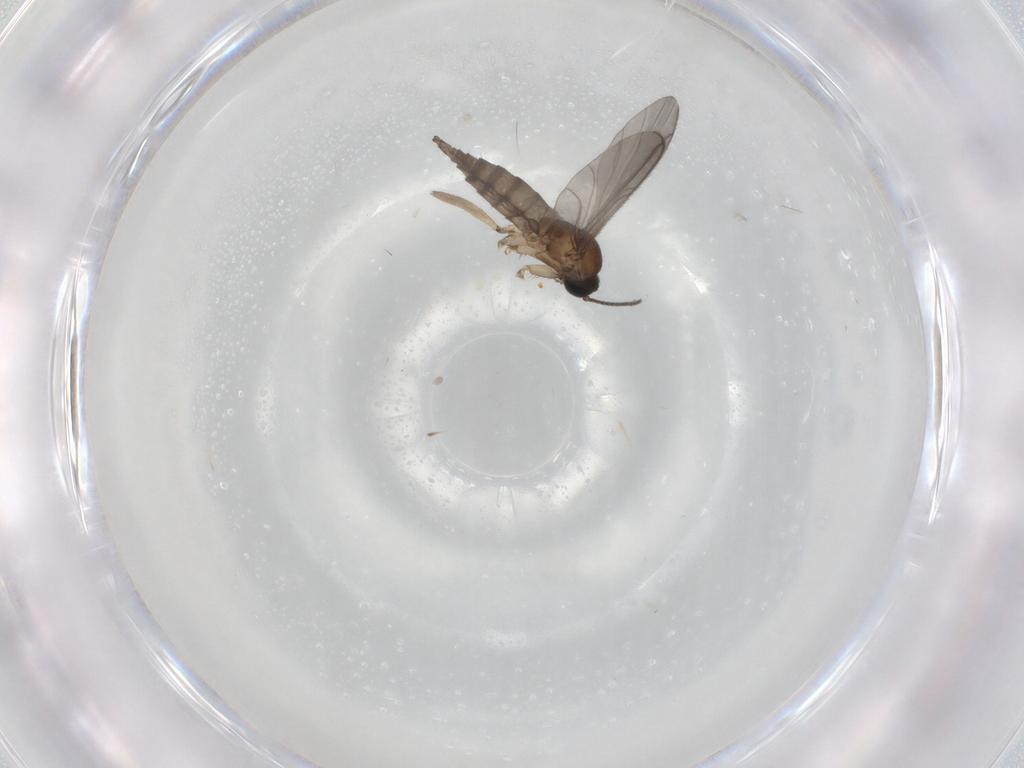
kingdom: Animalia
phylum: Arthropoda
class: Insecta
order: Diptera
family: Sciaridae
